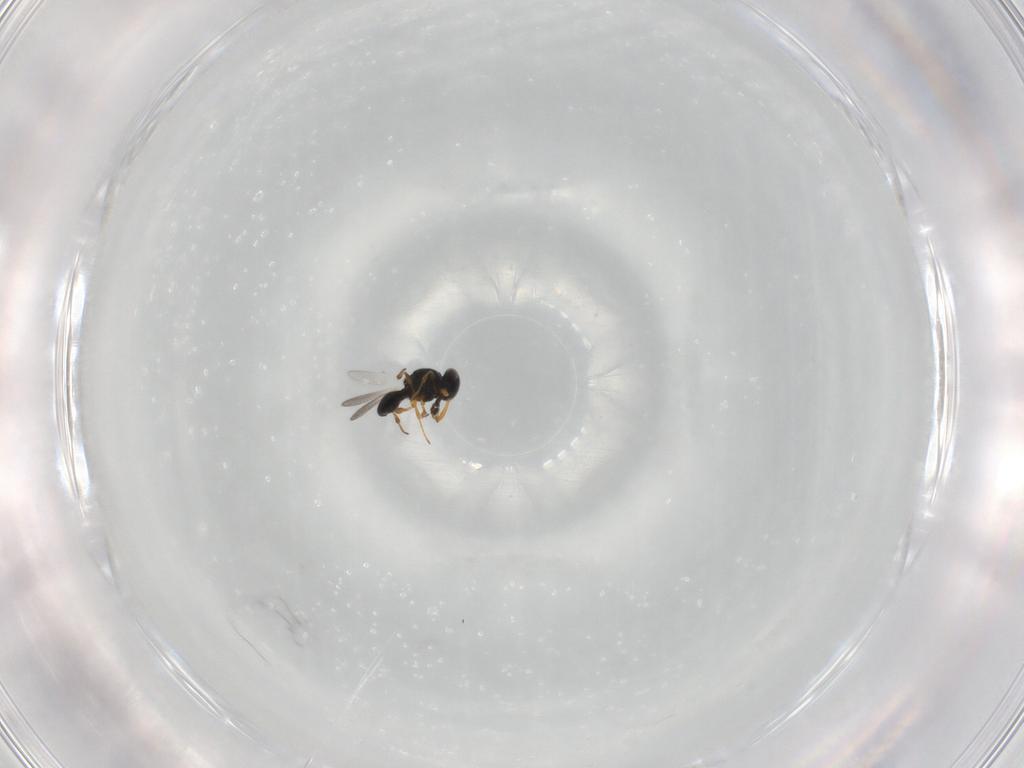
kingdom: Animalia
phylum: Arthropoda
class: Insecta
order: Hymenoptera
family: Platygastridae
